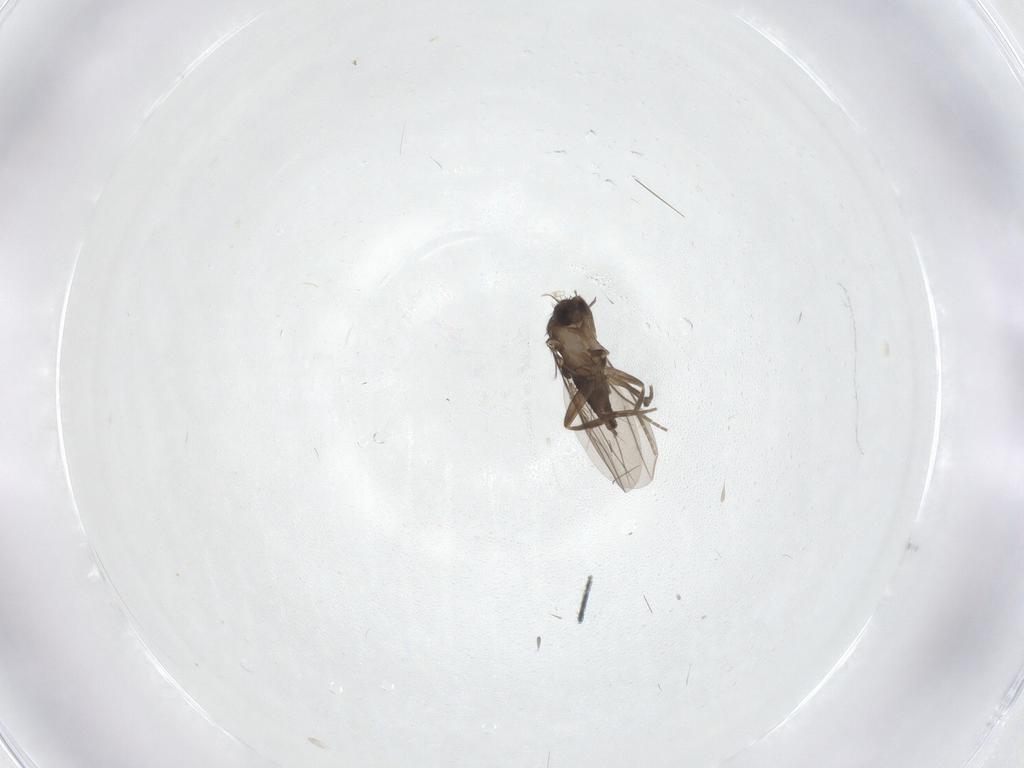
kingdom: Animalia
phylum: Arthropoda
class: Insecta
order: Diptera
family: Phoridae
